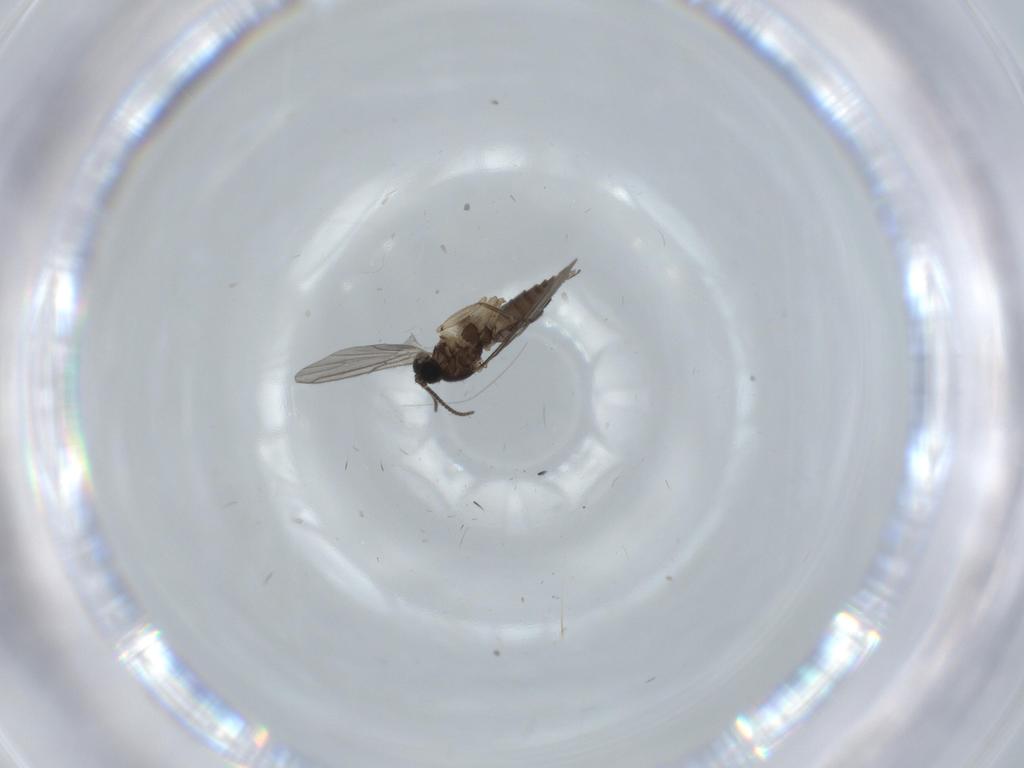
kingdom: Animalia
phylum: Arthropoda
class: Insecta
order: Diptera
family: Sciaridae
